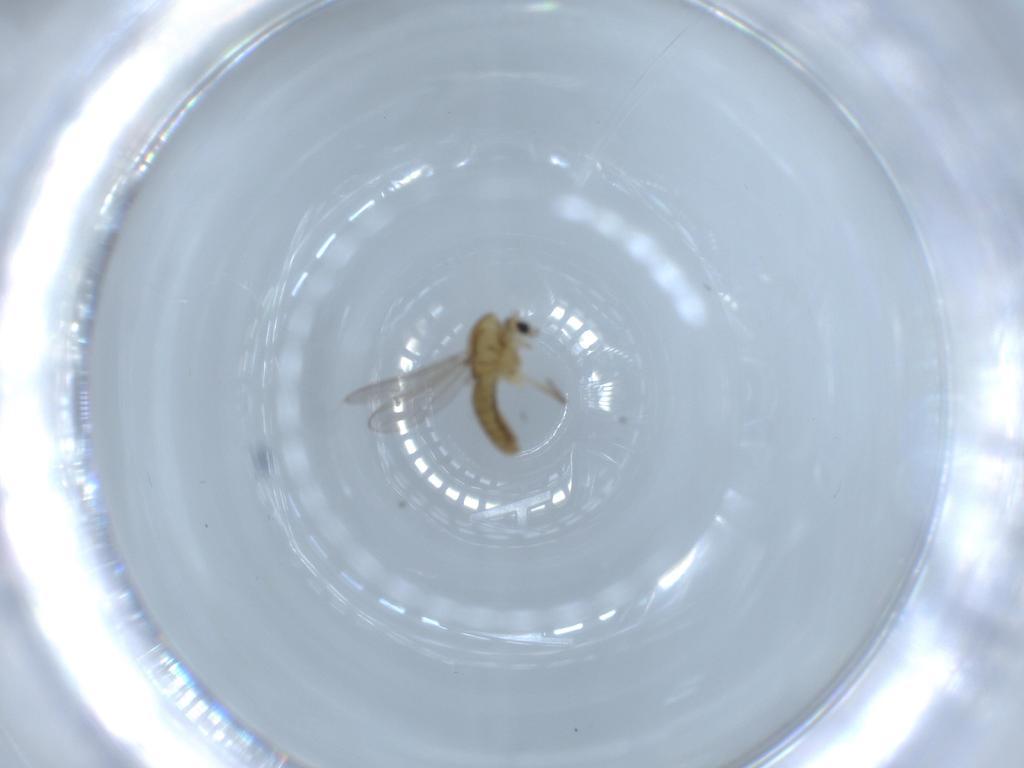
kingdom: Animalia
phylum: Arthropoda
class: Insecta
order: Diptera
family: Chironomidae
